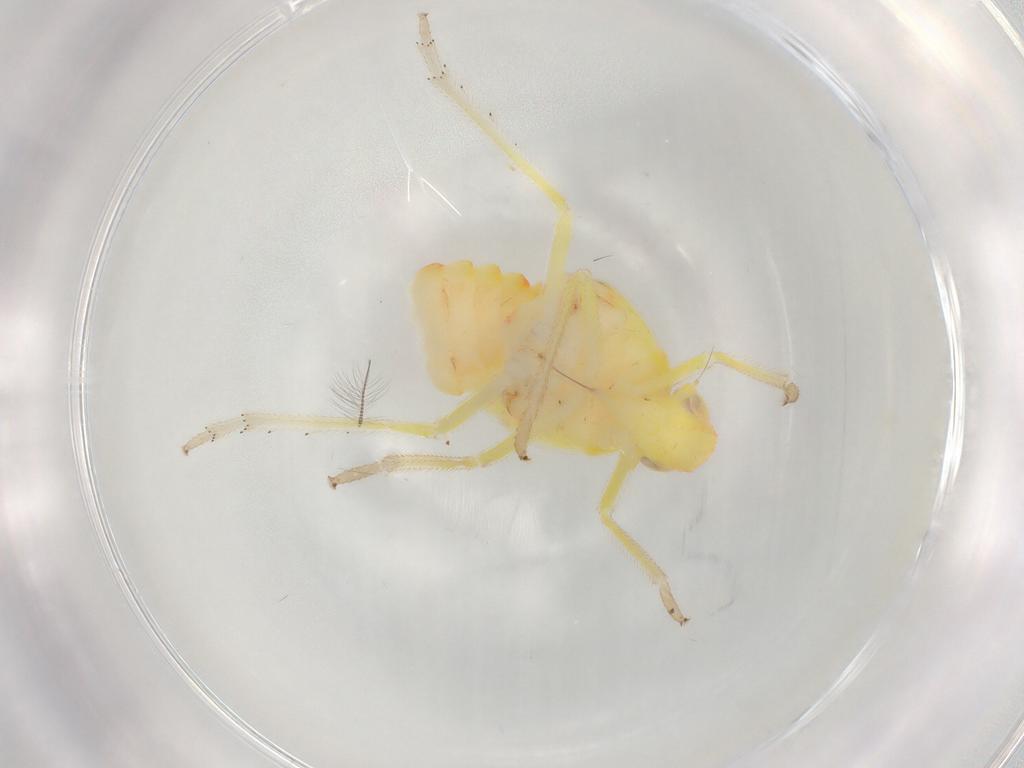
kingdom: Animalia
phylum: Arthropoda
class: Insecta
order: Hemiptera
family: Tropiduchidae
